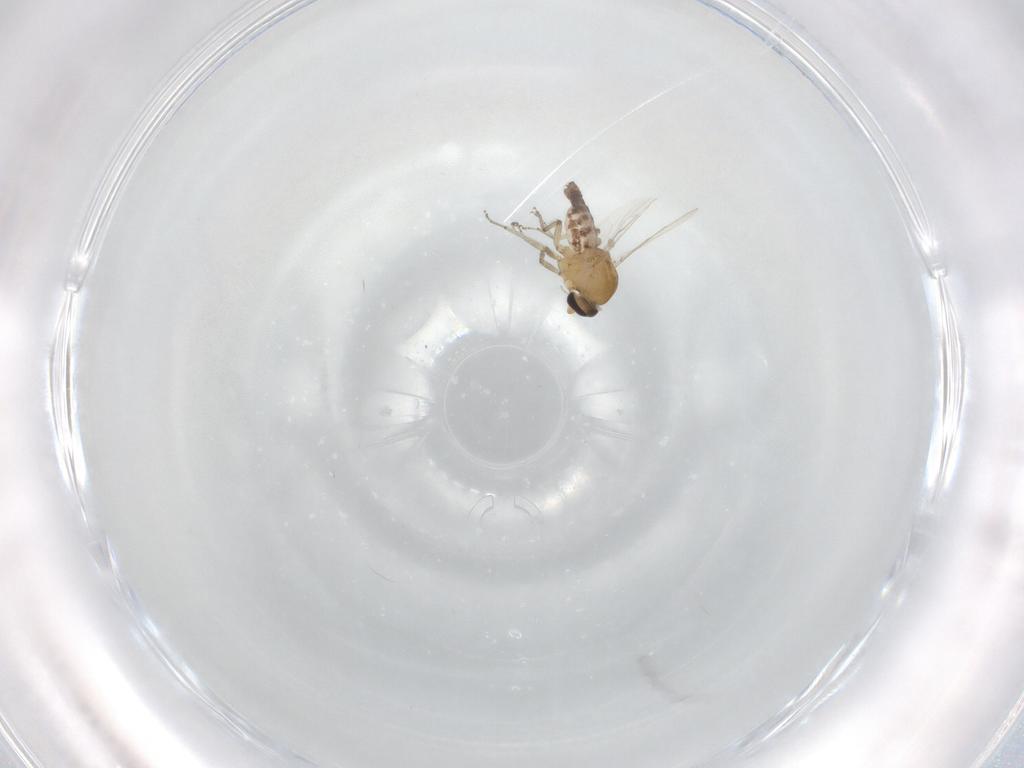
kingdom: Animalia
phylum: Arthropoda
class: Insecta
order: Diptera
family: Ceratopogonidae
